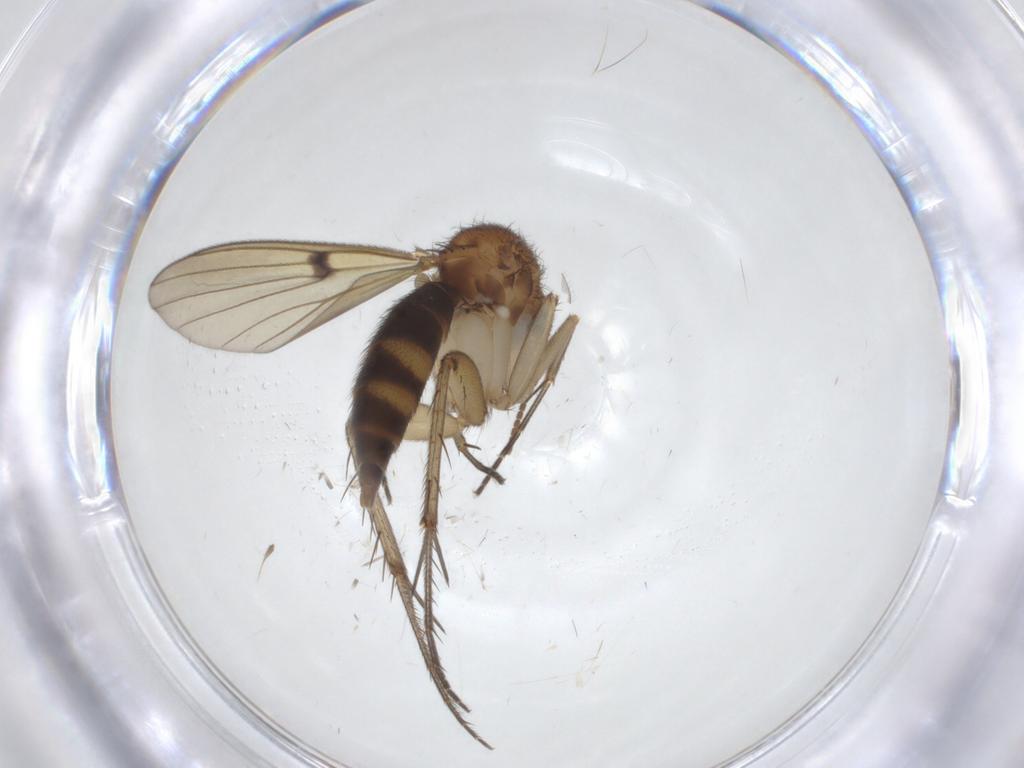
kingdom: Animalia
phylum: Arthropoda
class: Insecta
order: Diptera
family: Mycetophilidae
